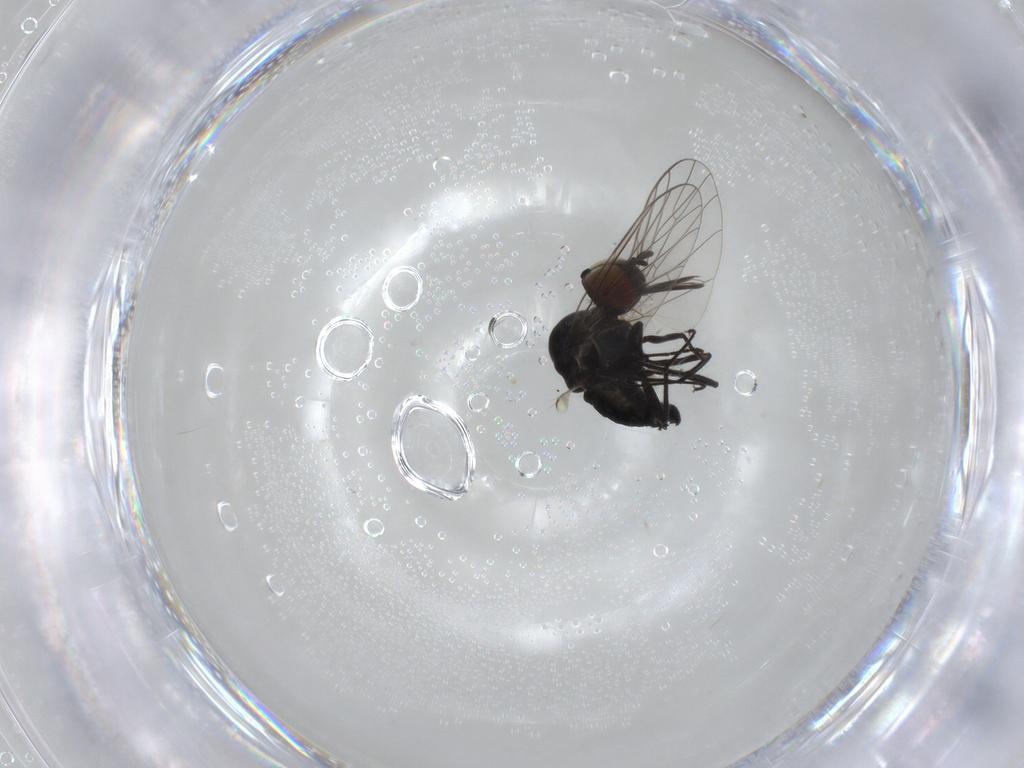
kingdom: Animalia
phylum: Arthropoda
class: Insecta
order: Diptera
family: Bombyliidae
